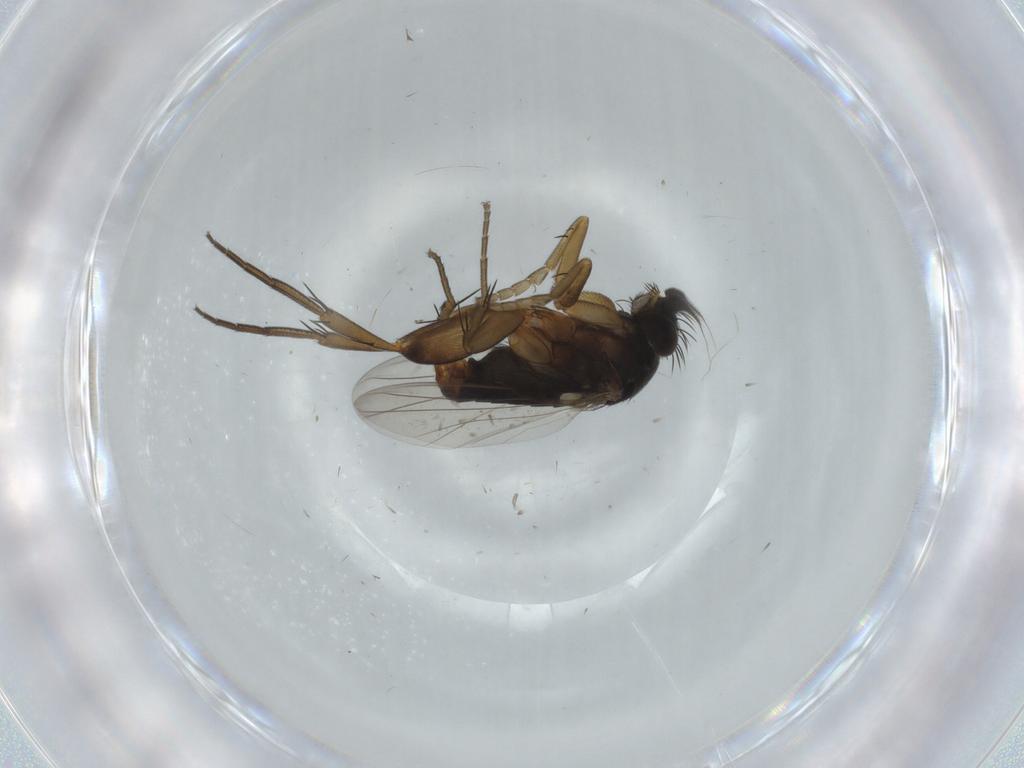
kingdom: Animalia
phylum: Arthropoda
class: Insecta
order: Diptera
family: Phoridae
